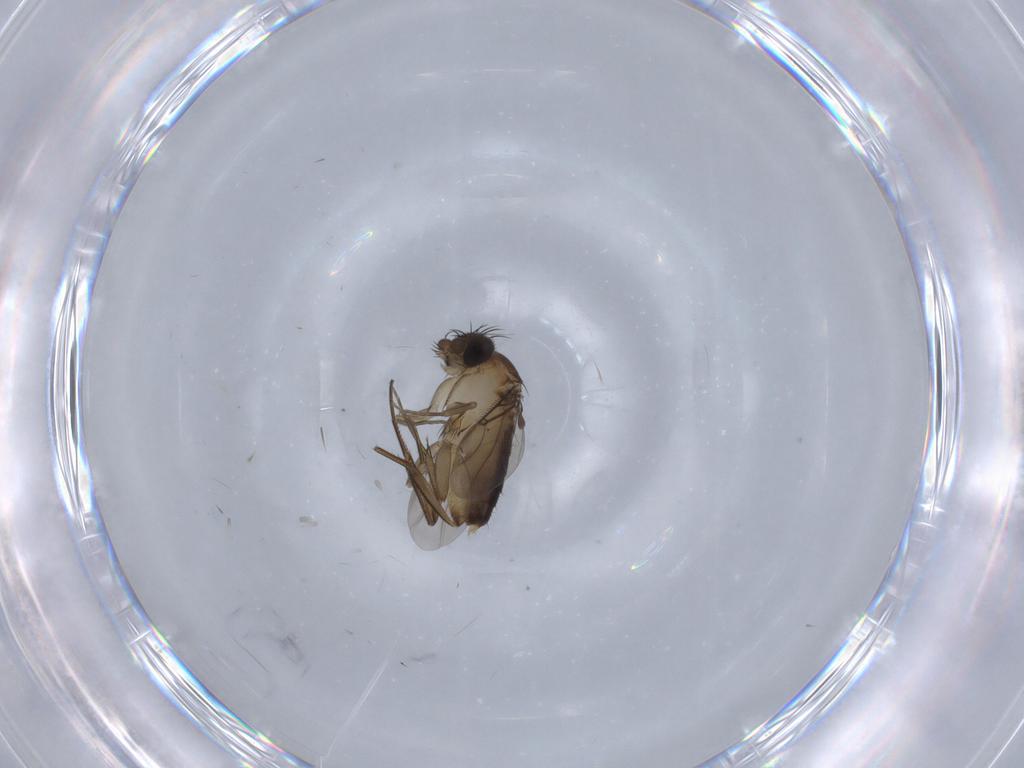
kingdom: Animalia
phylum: Arthropoda
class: Insecta
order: Diptera
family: Phoridae
